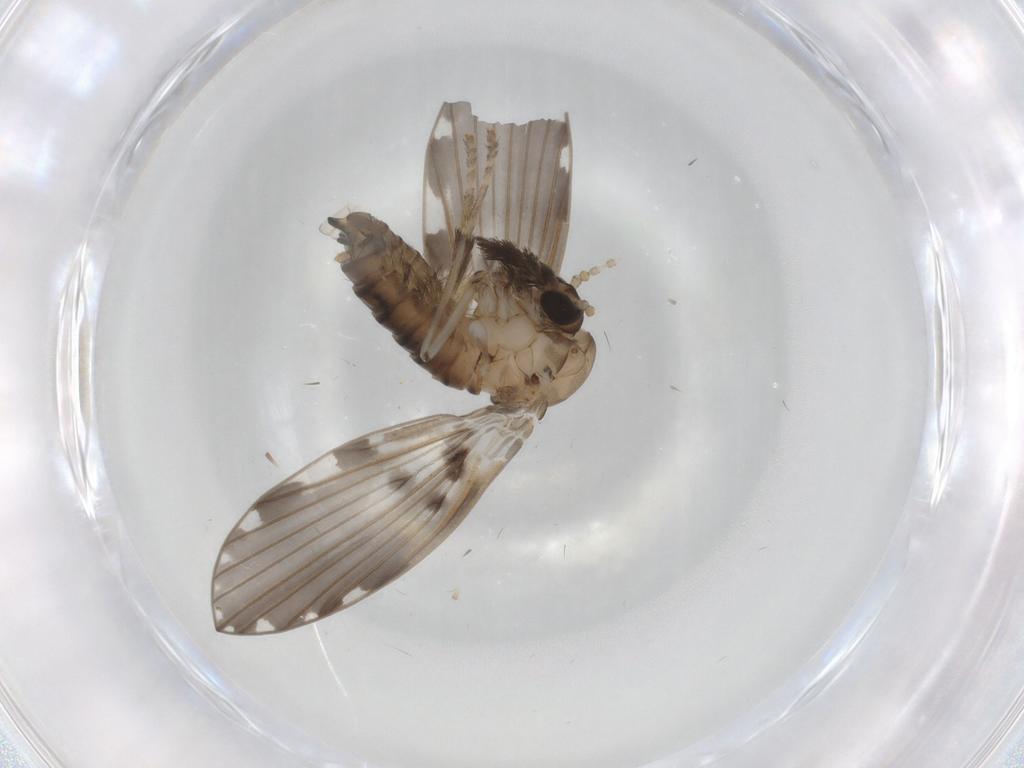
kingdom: Animalia
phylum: Arthropoda
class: Insecta
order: Diptera
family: Psychodidae
